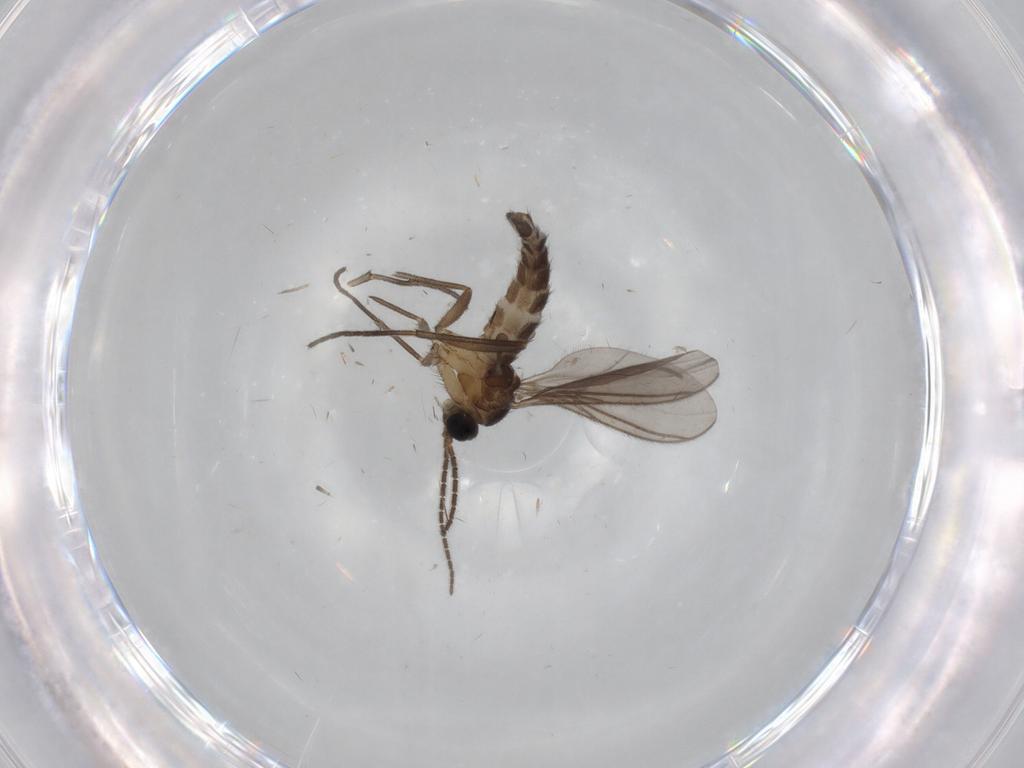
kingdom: Animalia
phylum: Arthropoda
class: Insecta
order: Diptera
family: Sciaridae
